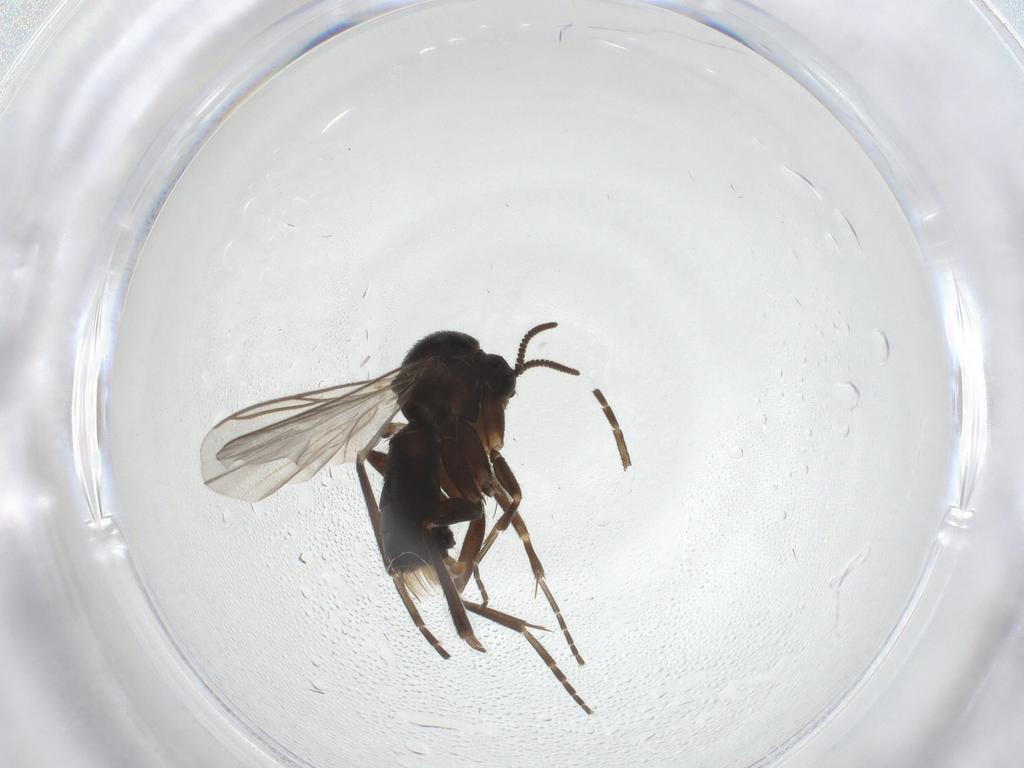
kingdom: Animalia
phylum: Arthropoda
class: Insecta
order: Diptera
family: Mycetophilidae
